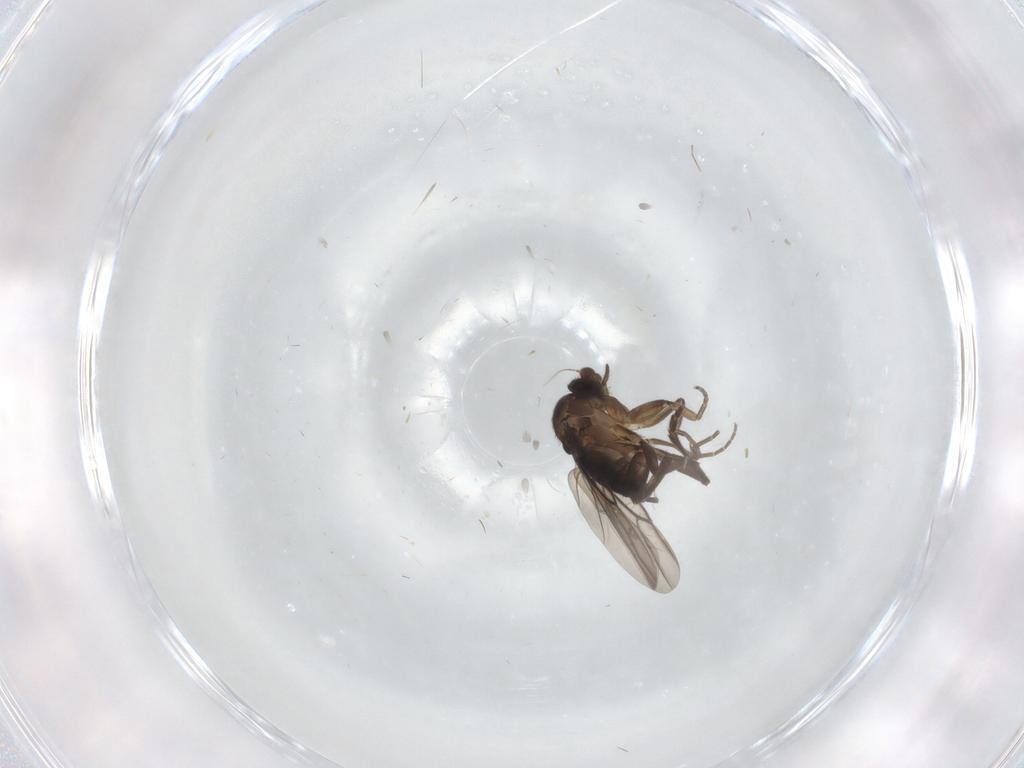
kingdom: Animalia
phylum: Arthropoda
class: Insecta
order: Diptera
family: Phoridae
